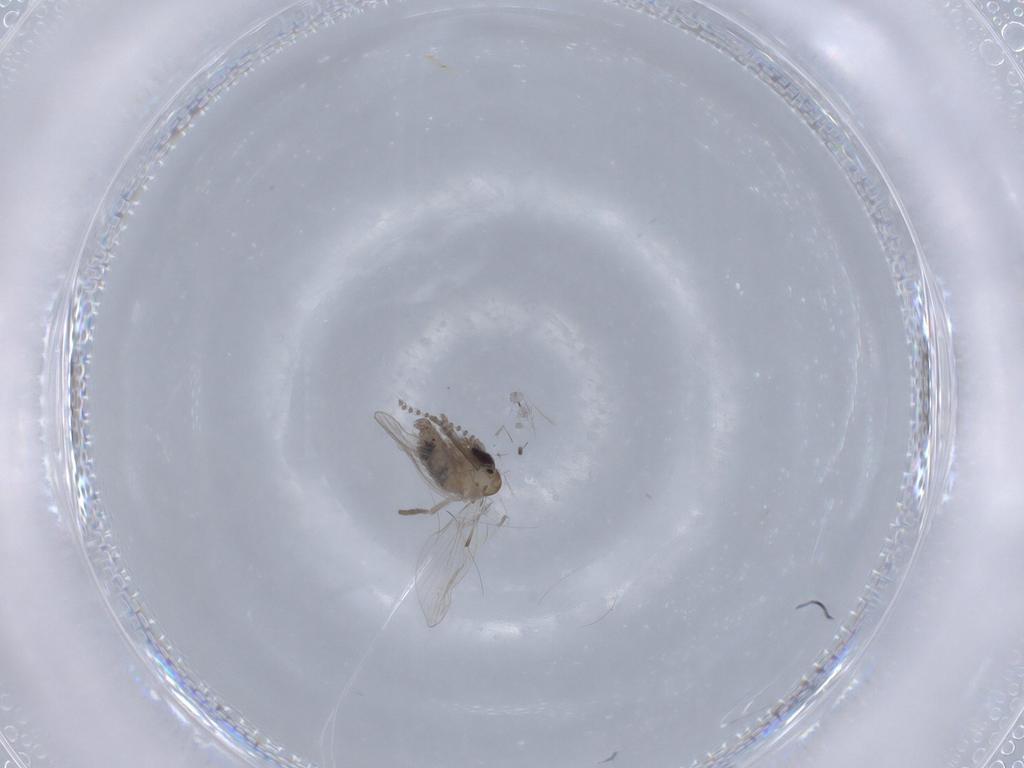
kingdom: Animalia
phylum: Arthropoda
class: Insecta
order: Diptera
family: Psychodidae
